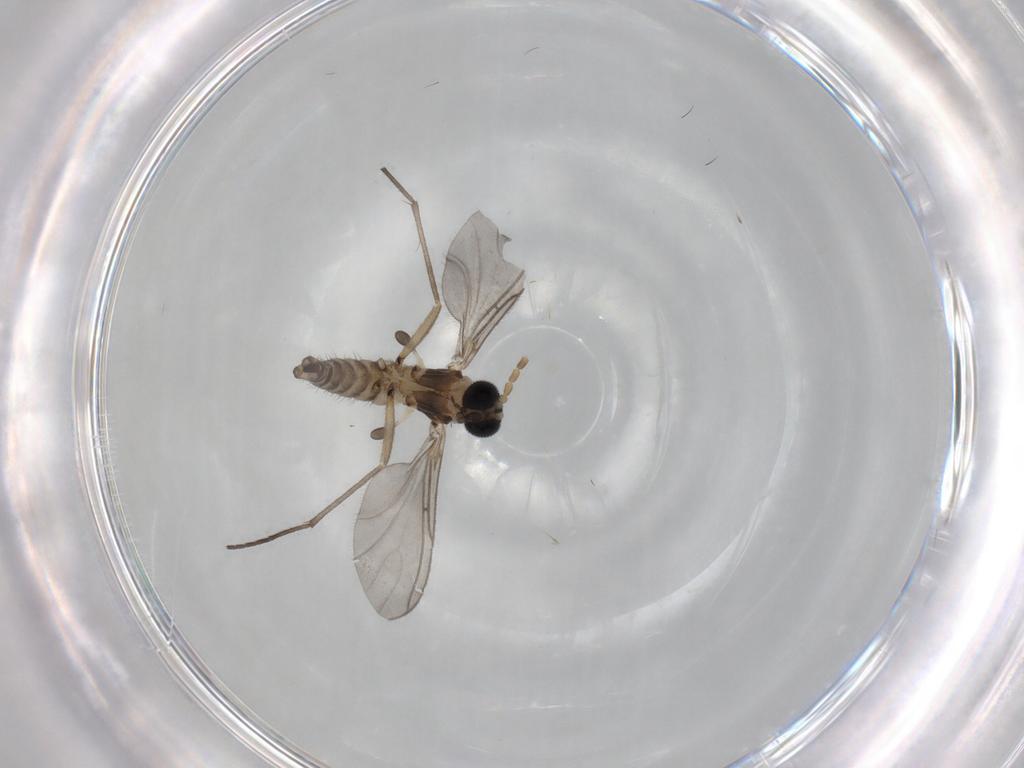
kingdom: Animalia
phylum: Arthropoda
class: Insecta
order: Diptera
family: Sciaridae
